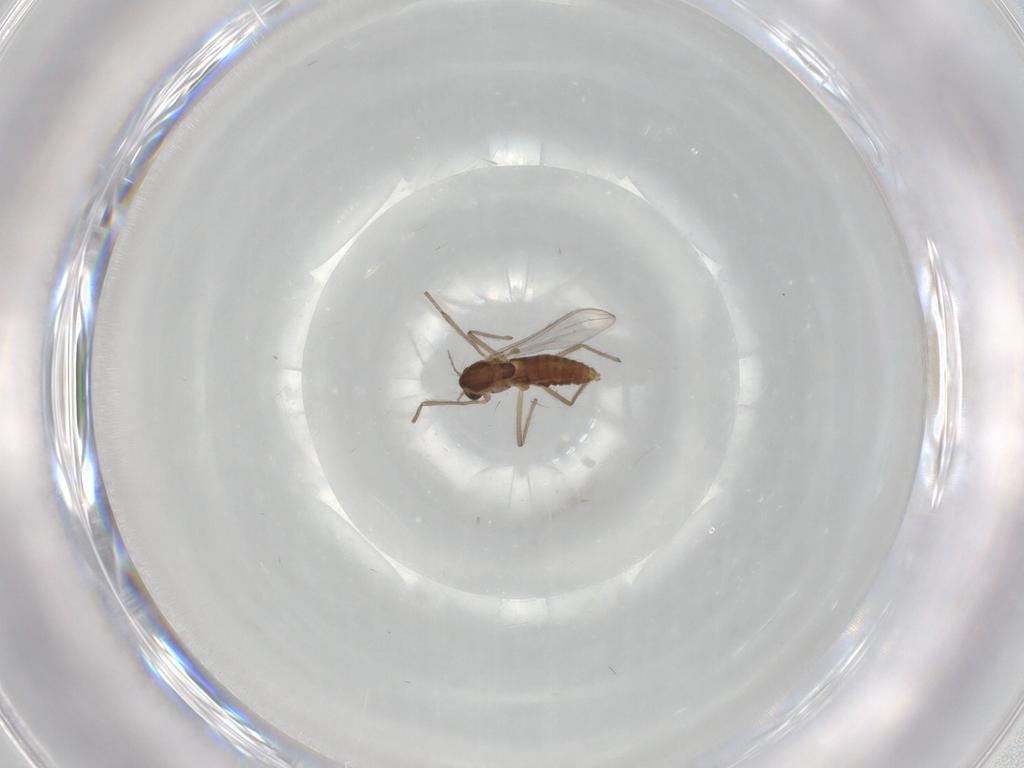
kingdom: Animalia
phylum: Arthropoda
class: Insecta
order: Diptera
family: Chironomidae
